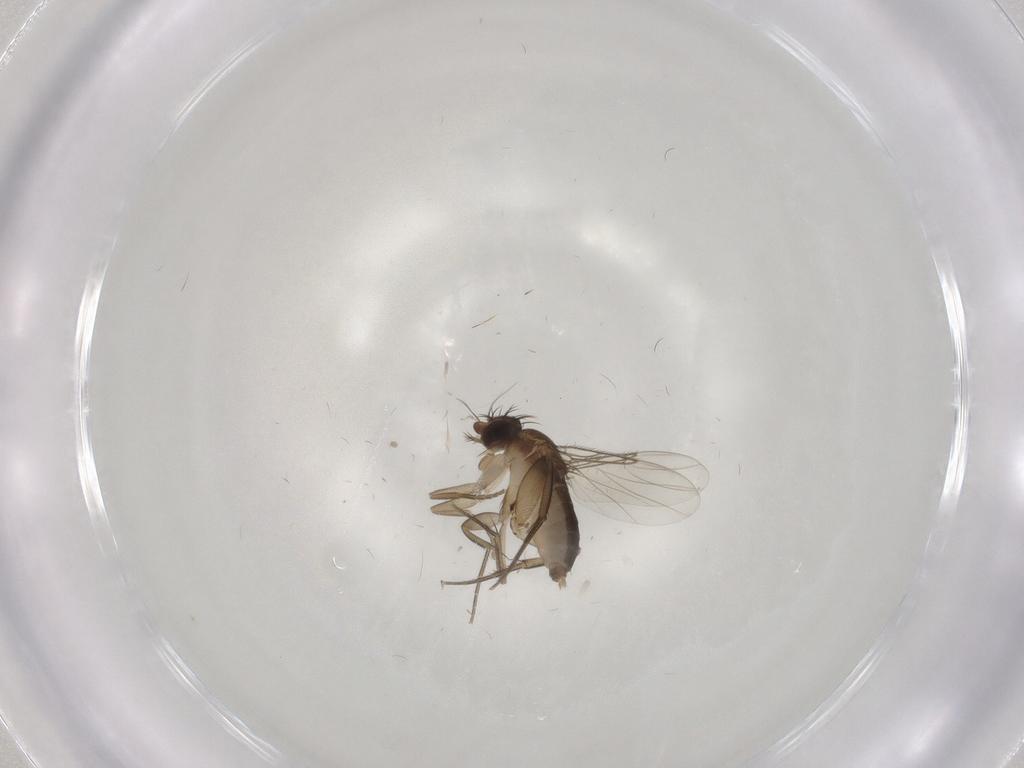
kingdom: Animalia
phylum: Arthropoda
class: Insecta
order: Diptera
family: Phoridae
